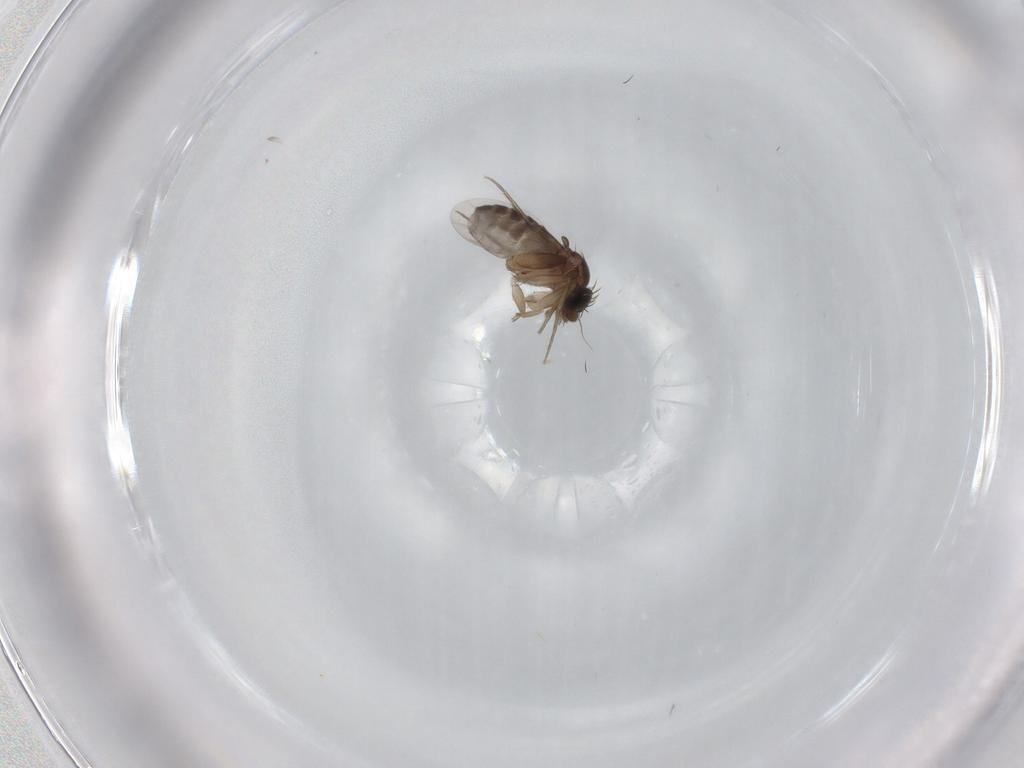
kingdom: Animalia
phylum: Arthropoda
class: Insecta
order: Diptera
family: Phoridae
